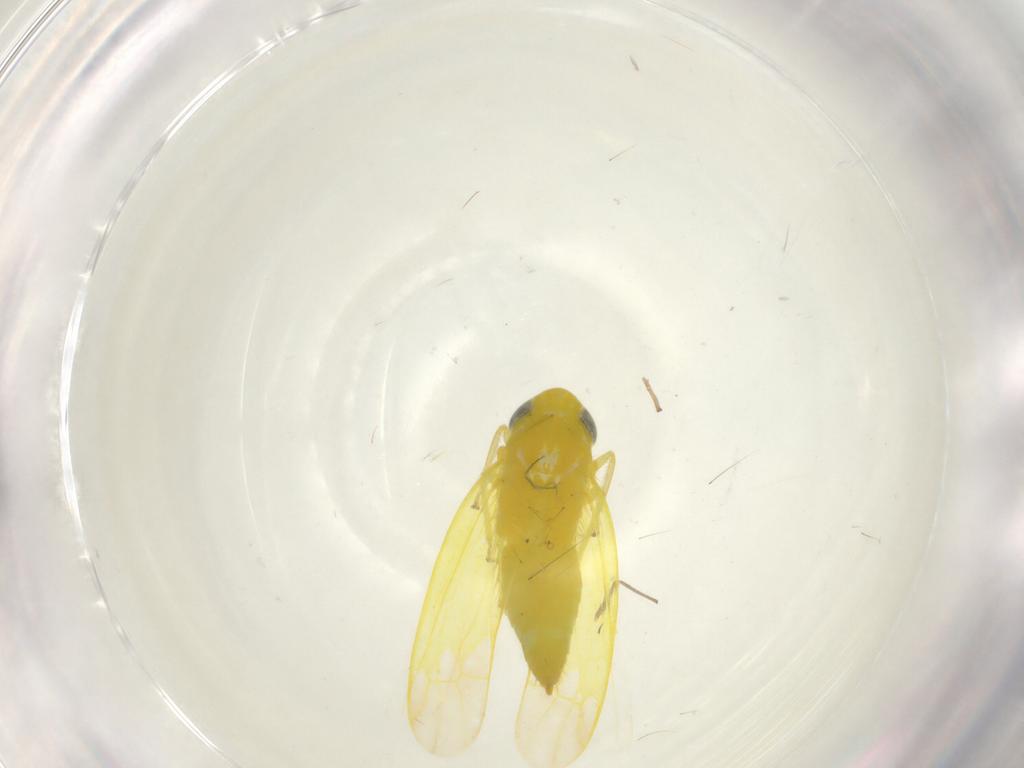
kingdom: Animalia
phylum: Arthropoda
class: Insecta
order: Hemiptera
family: Cicadellidae
